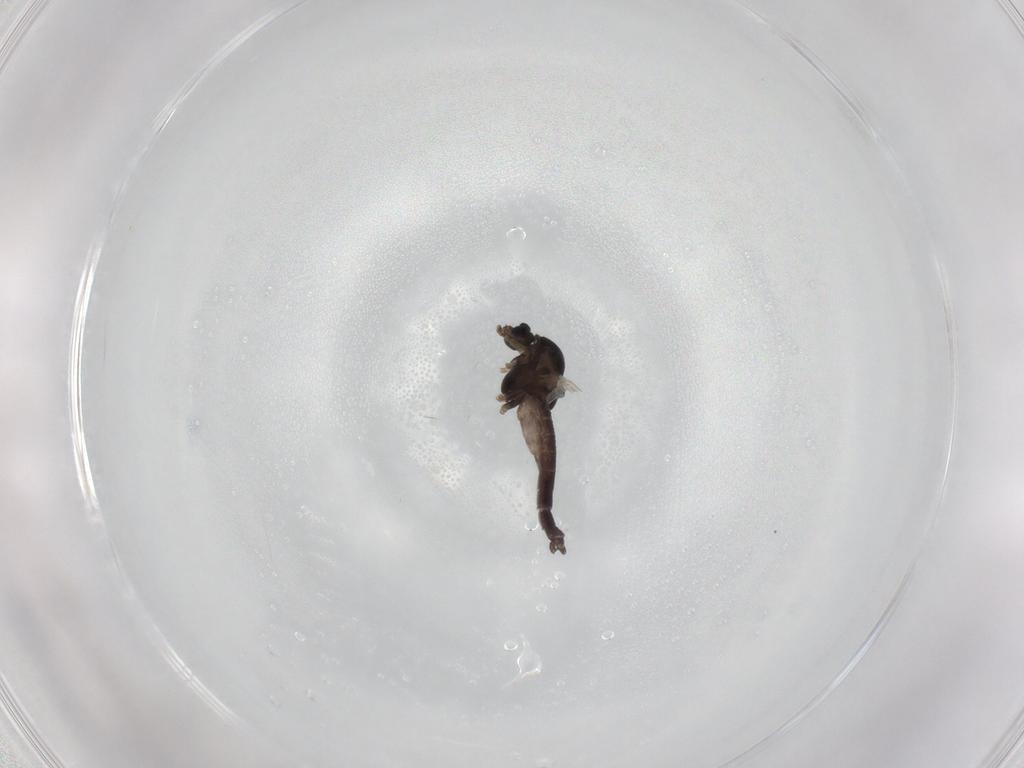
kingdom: Animalia
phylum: Arthropoda
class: Insecta
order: Diptera
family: Chironomidae
